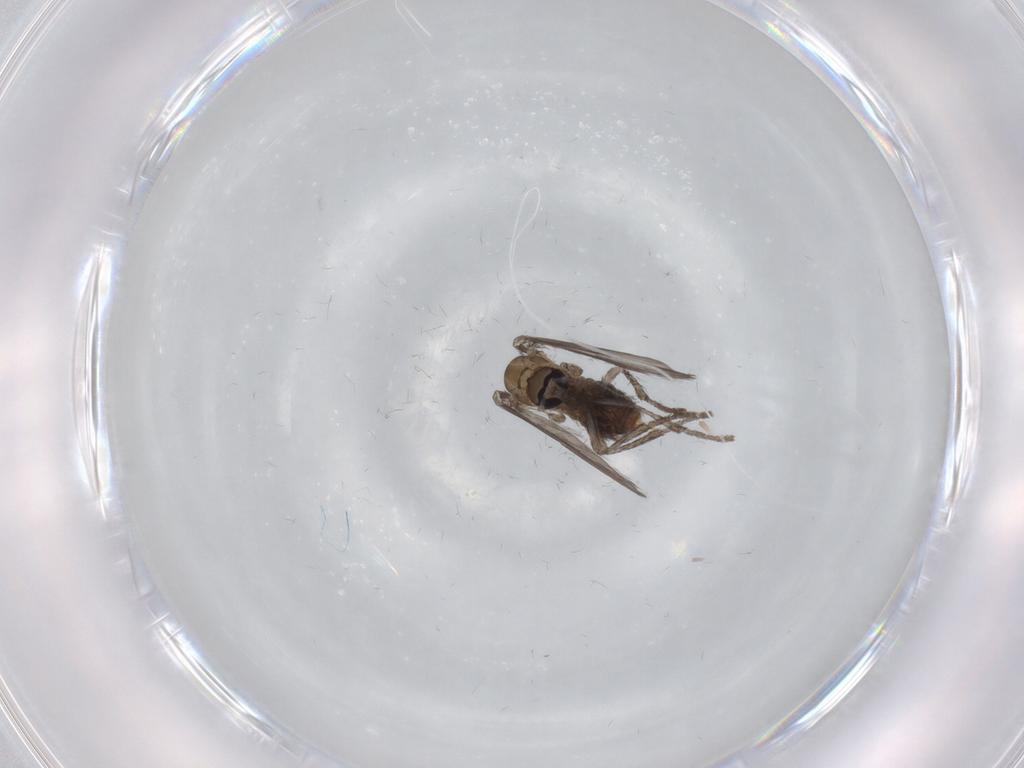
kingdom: Animalia
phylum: Arthropoda
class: Insecta
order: Diptera
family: Psychodidae
